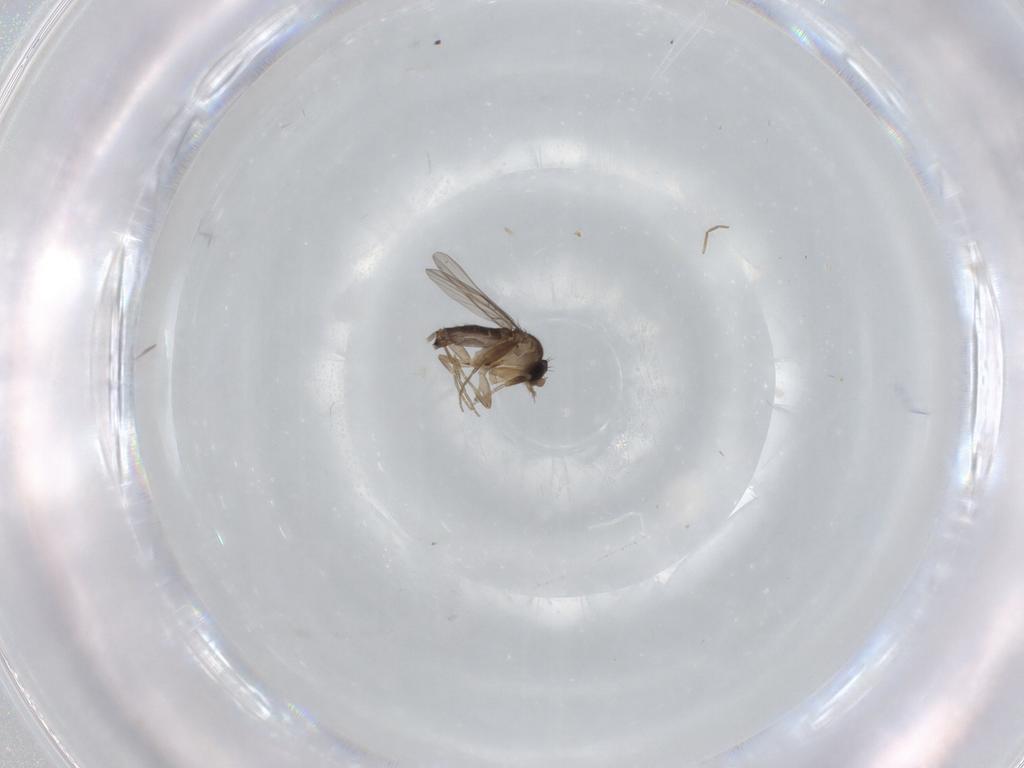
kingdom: Animalia
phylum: Arthropoda
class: Insecta
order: Diptera
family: Phoridae
